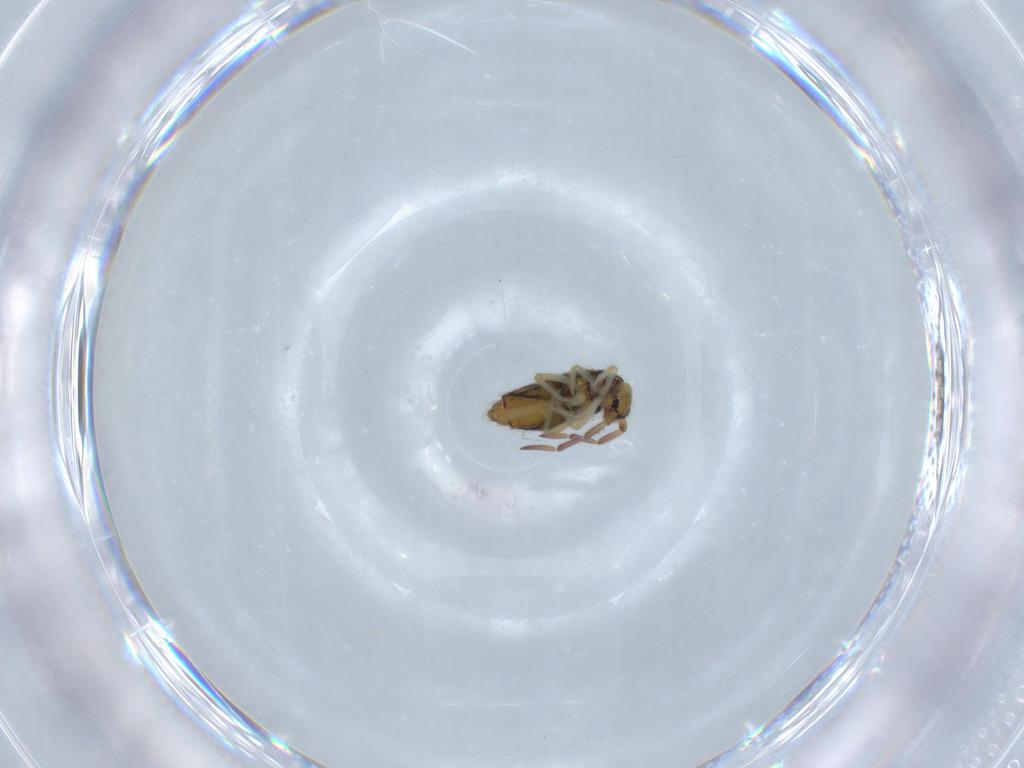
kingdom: Animalia
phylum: Arthropoda
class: Collembola
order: Entomobryomorpha
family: Entomobryidae
